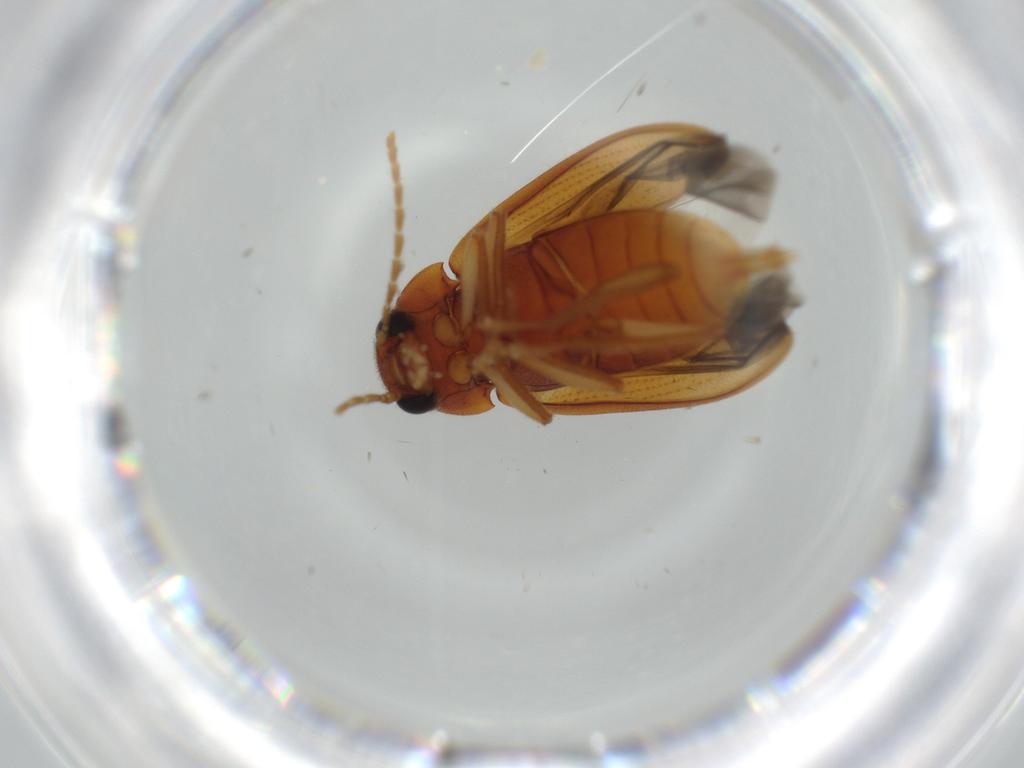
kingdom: Animalia
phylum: Arthropoda
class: Insecta
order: Coleoptera
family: Ptilodactylidae
